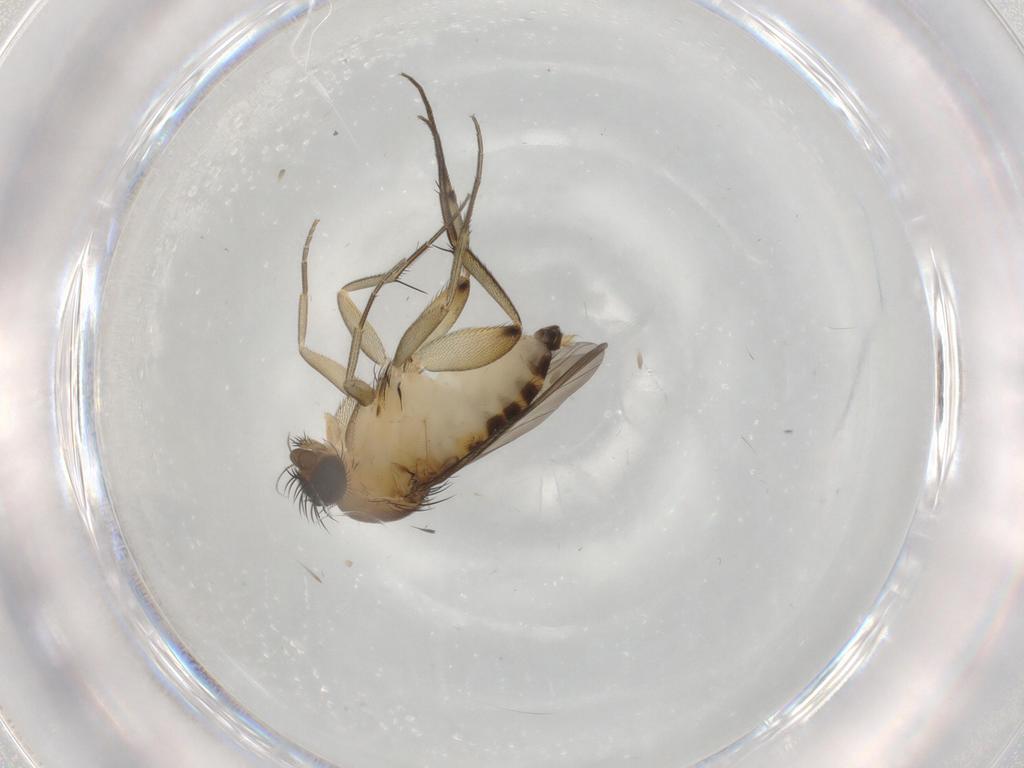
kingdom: Animalia
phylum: Arthropoda
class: Insecta
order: Diptera
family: Phoridae
